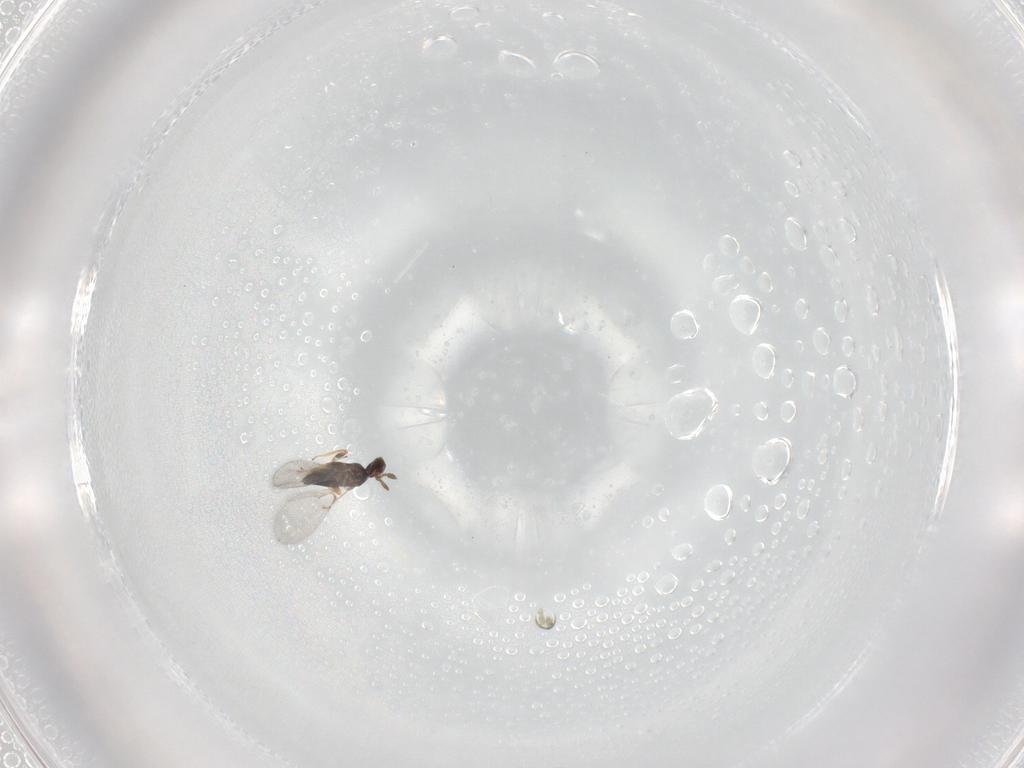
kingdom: Animalia
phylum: Arthropoda
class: Insecta
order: Hymenoptera
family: Trichogrammatidae
